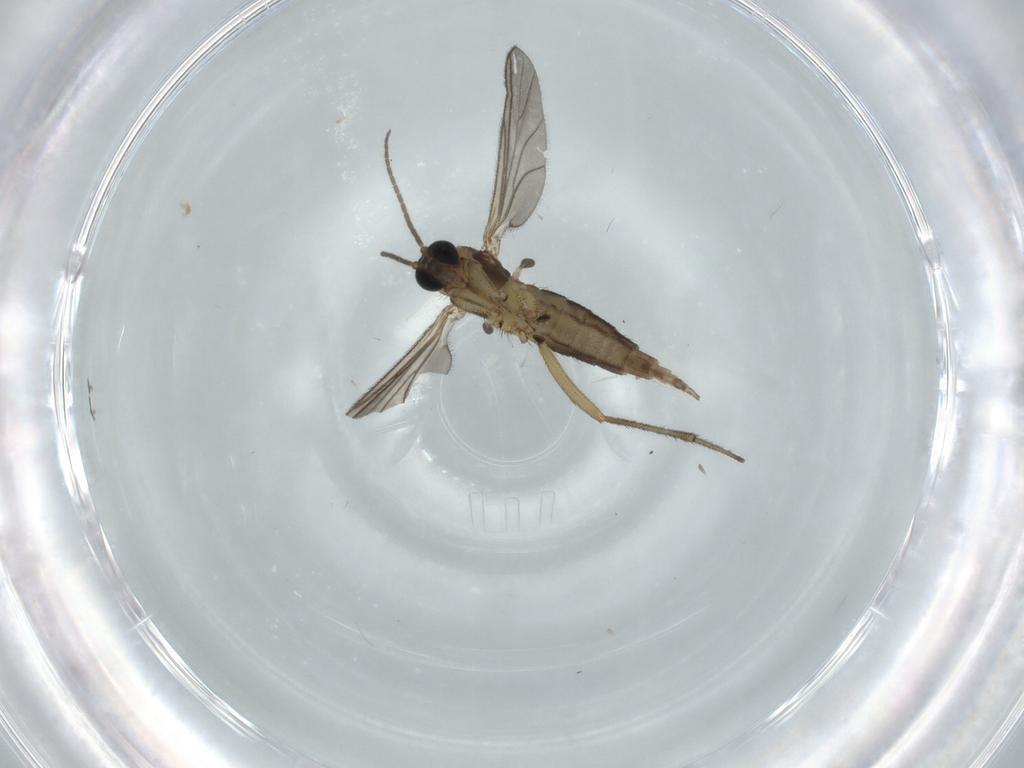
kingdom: Animalia
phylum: Arthropoda
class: Insecta
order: Diptera
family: Sciaridae
